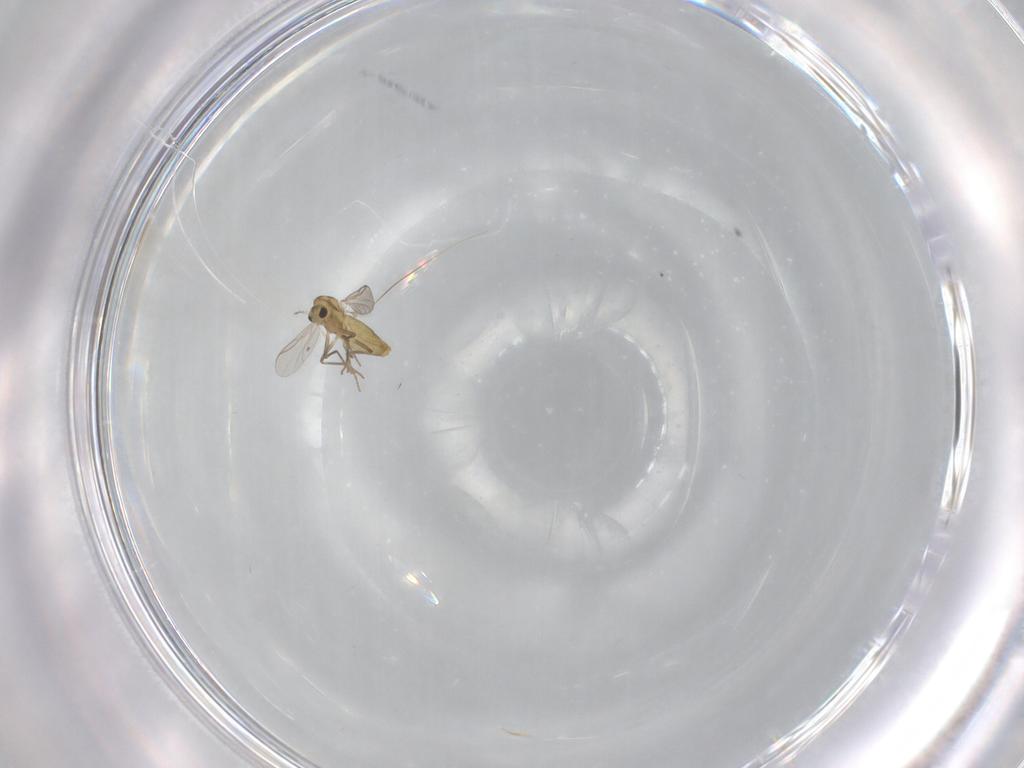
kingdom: Animalia
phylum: Arthropoda
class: Insecta
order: Diptera
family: Chironomidae
